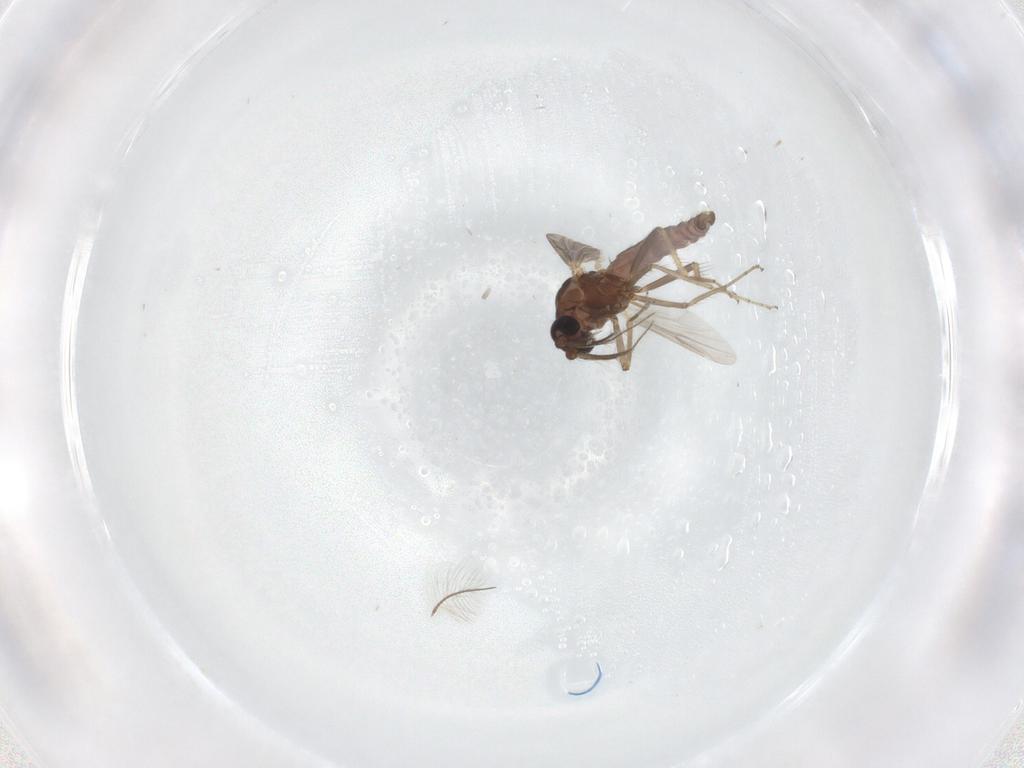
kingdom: Animalia
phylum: Arthropoda
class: Insecta
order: Diptera
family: Ceratopogonidae
